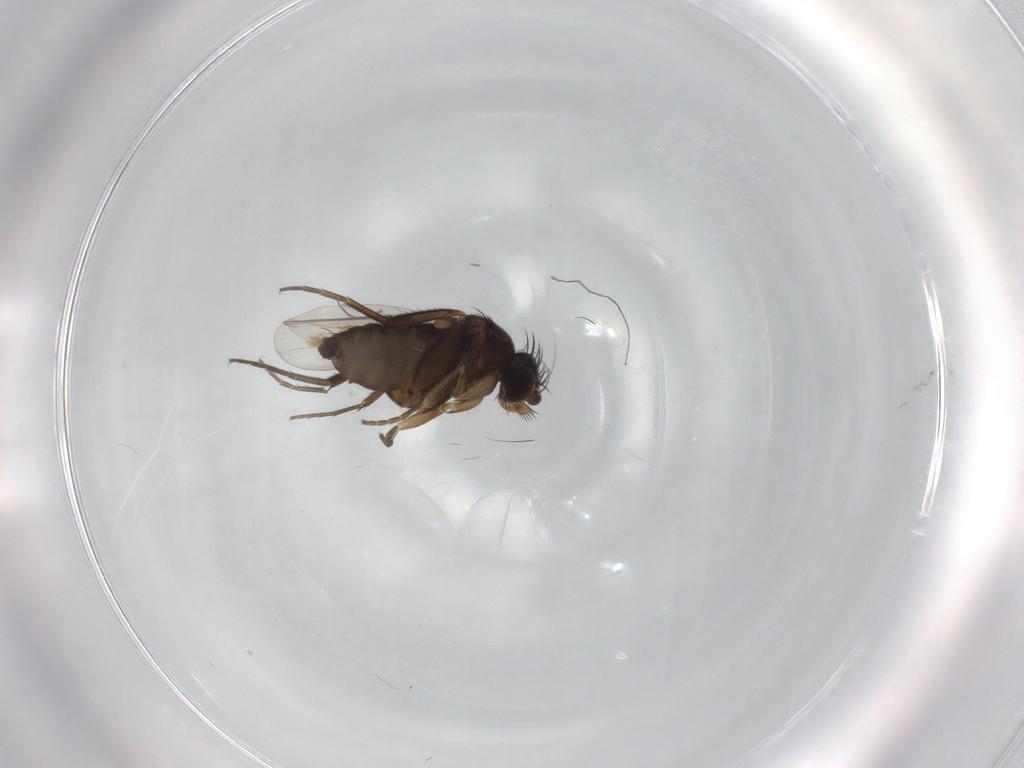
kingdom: Animalia
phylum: Arthropoda
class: Insecta
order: Diptera
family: Phoridae
